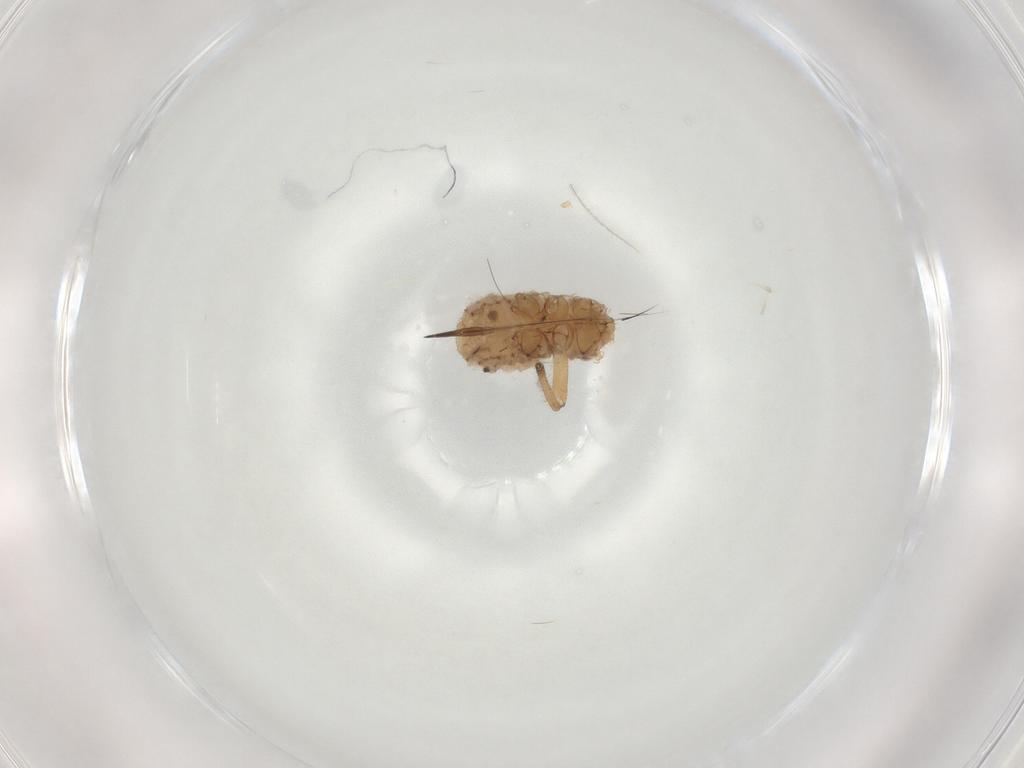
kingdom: Animalia
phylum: Arthropoda
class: Insecta
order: Hemiptera
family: Aphididae
